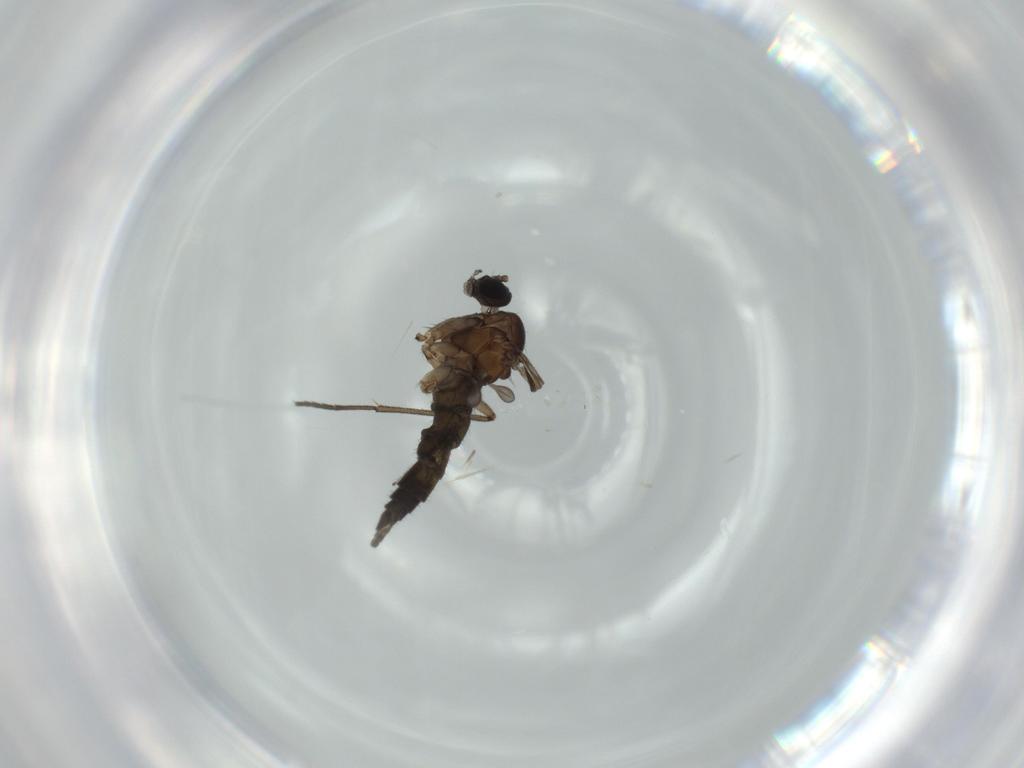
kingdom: Animalia
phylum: Arthropoda
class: Insecta
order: Diptera
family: Sciaridae
